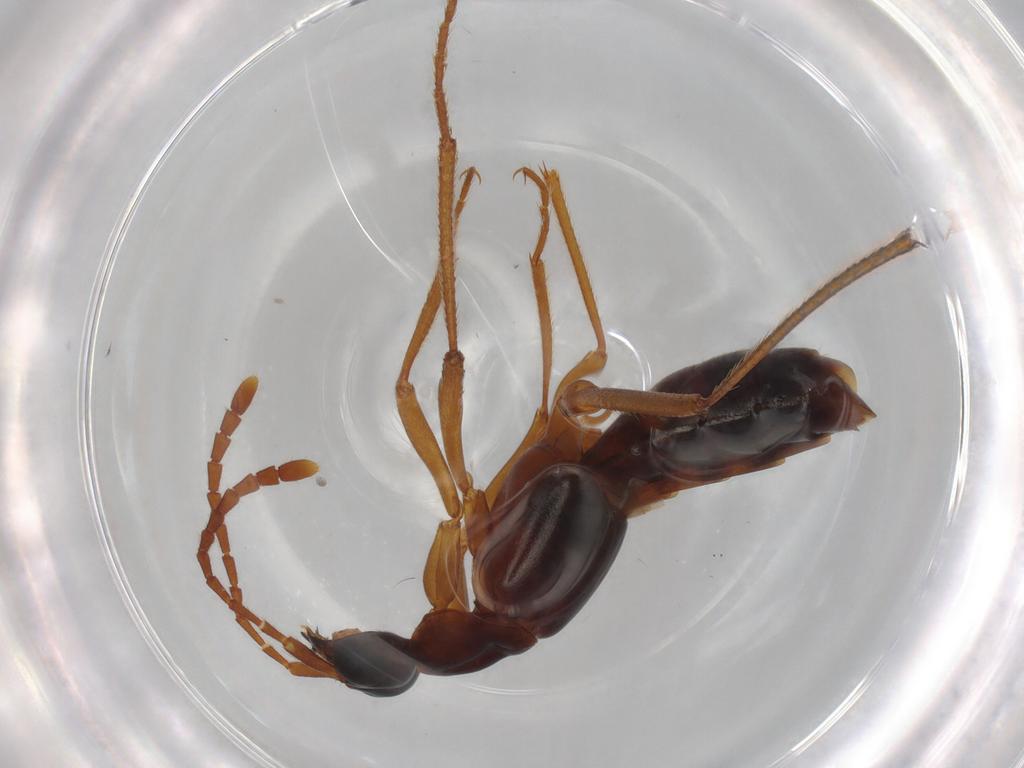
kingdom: Animalia
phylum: Arthropoda
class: Insecta
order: Coleoptera
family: Staphylinidae
